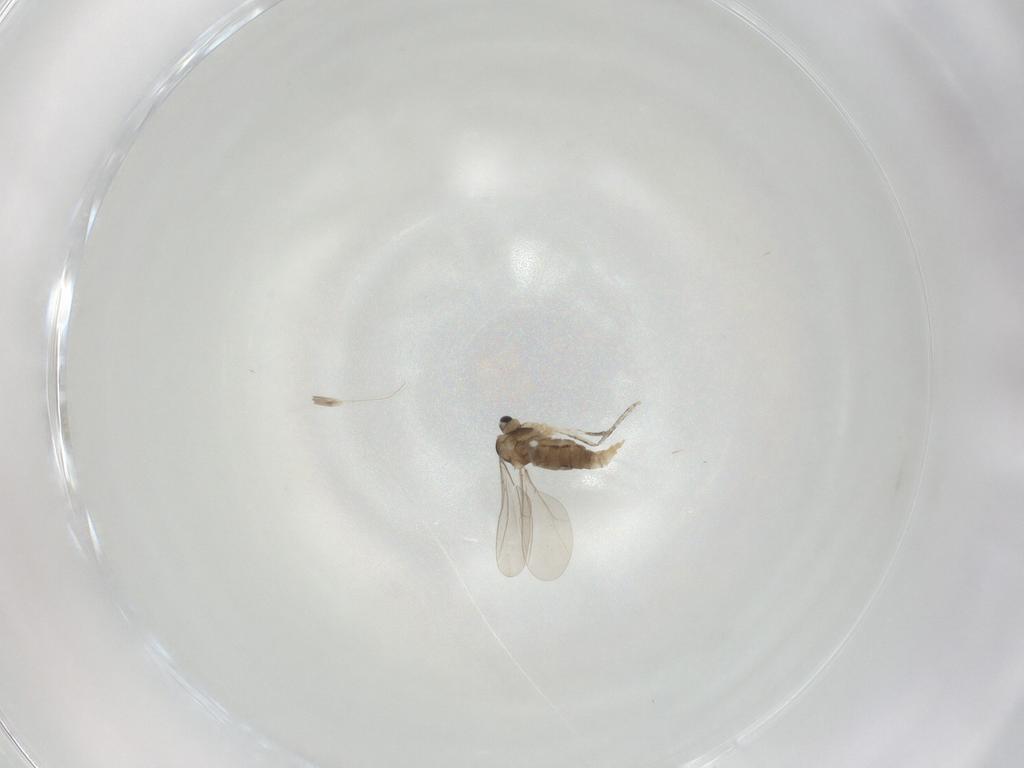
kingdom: Animalia
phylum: Arthropoda
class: Insecta
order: Diptera
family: Cecidomyiidae
